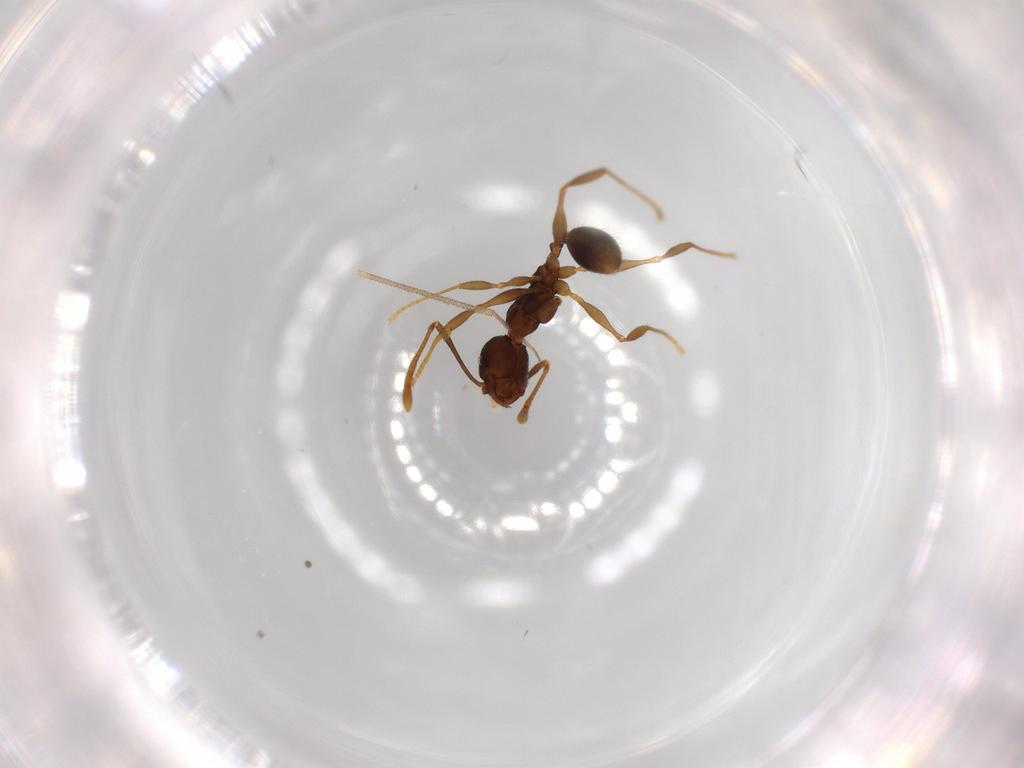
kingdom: Animalia
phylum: Arthropoda
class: Insecta
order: Hymenoptera
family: Formicidae
